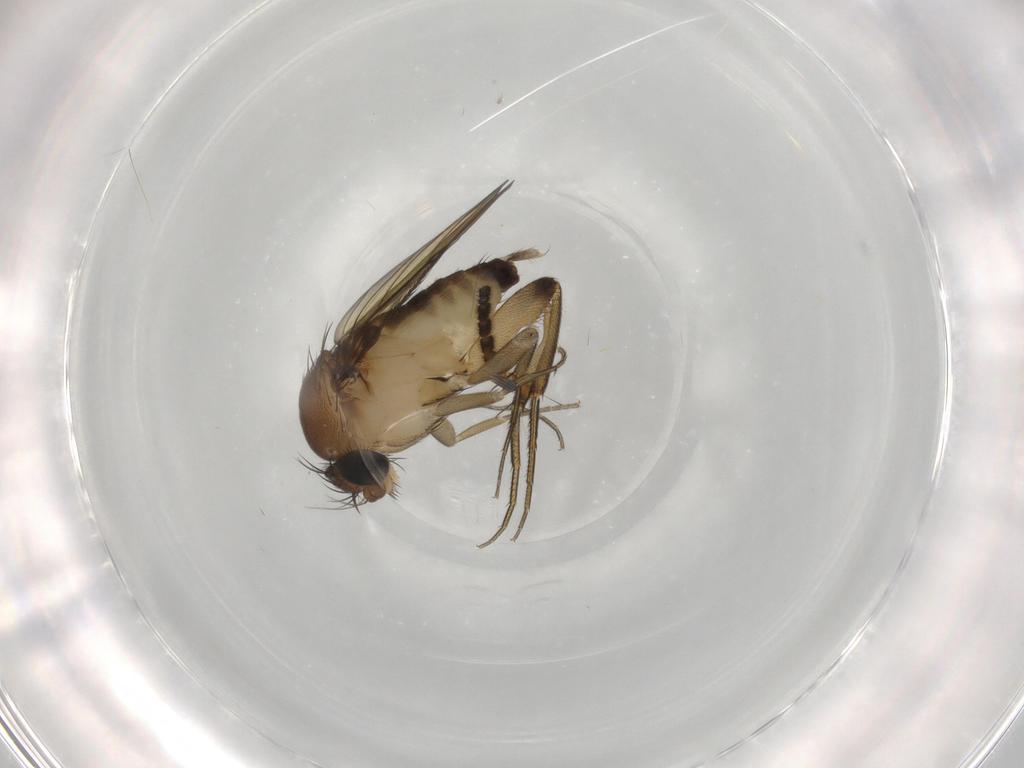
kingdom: Animalia
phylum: Arthropoda
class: Insecta
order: Diptera
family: Phoridae
